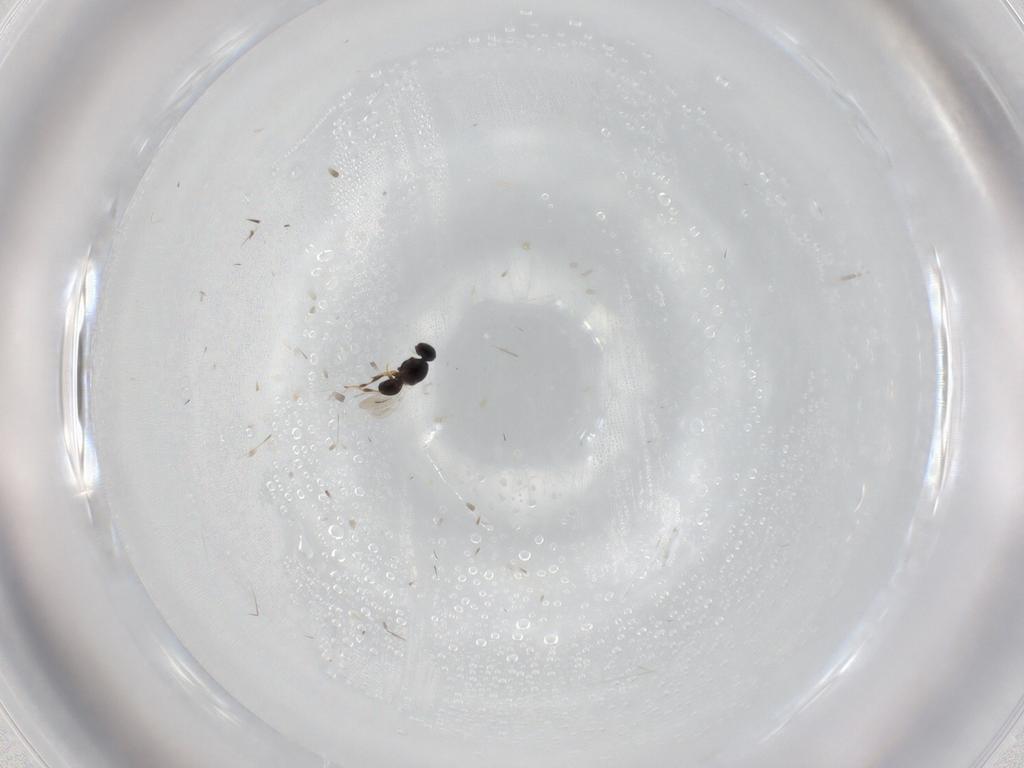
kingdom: Animalia
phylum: Arthropoda
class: Insecta
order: Hymenoptera
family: Platygastridae
